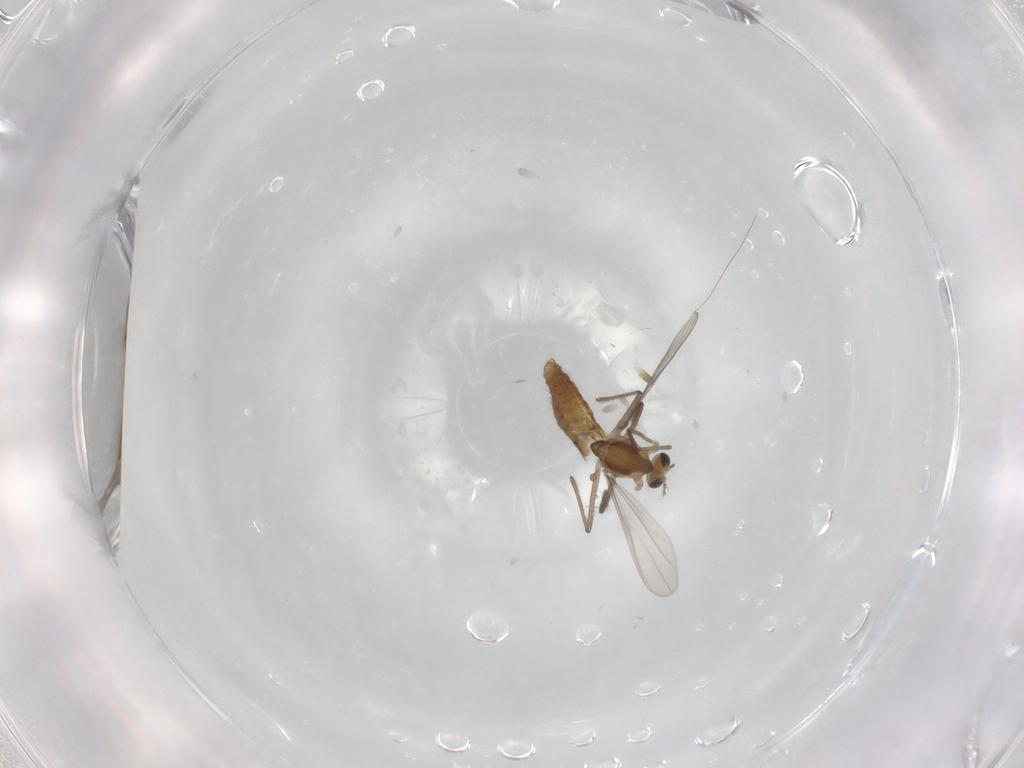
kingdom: Animalia
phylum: Arthropoda
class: Insecta
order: Diptera
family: Chironomidae
